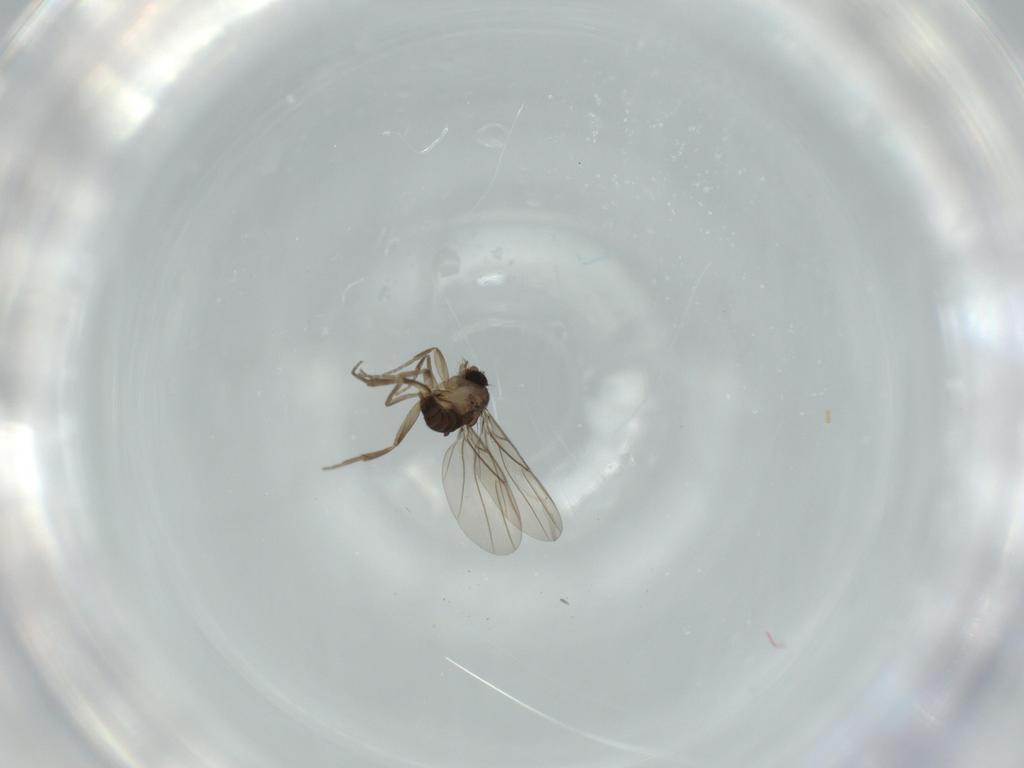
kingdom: Animalia
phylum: Arthropoda
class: Insecta
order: Diptera
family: Phoridae
